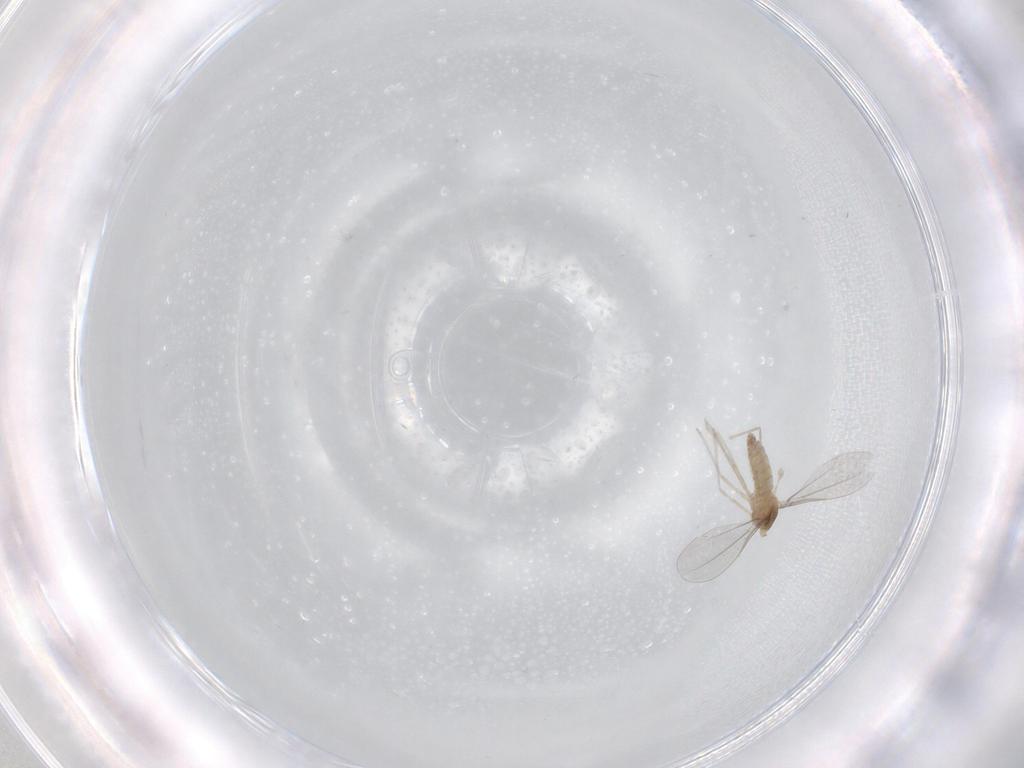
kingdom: Animalia
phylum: Arthropoda
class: Insecta
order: Diptera
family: Cecidomyiidae
